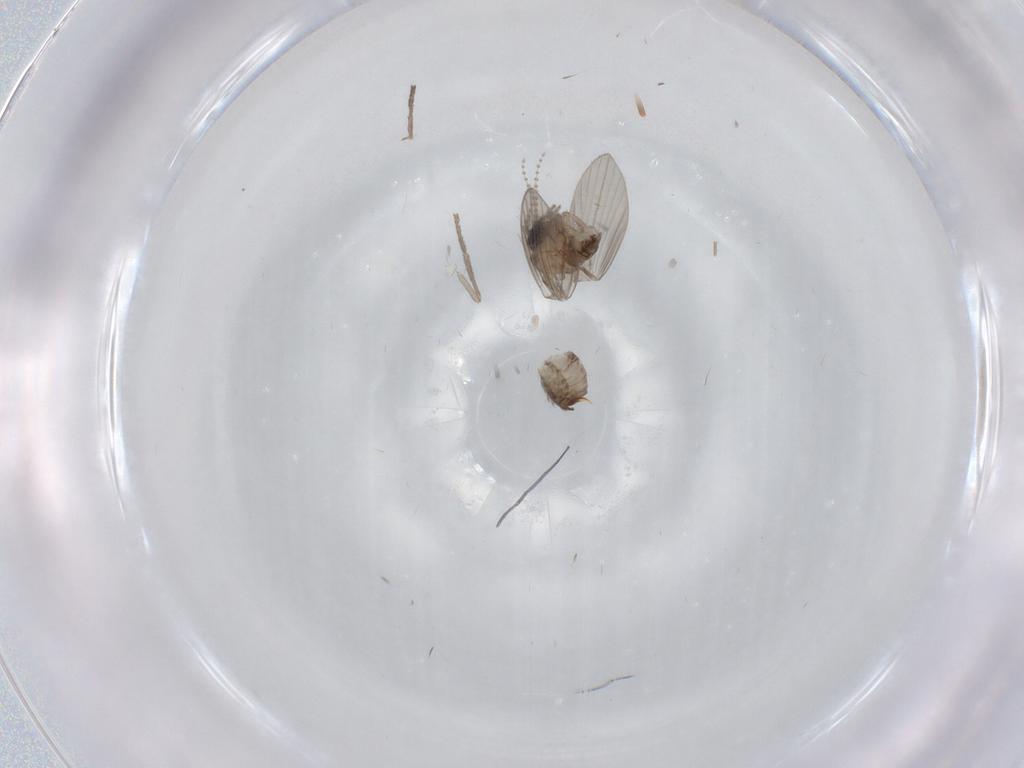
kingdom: Animalia
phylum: Arthropoda
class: Insecta
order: Diptera
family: Psychodidae
